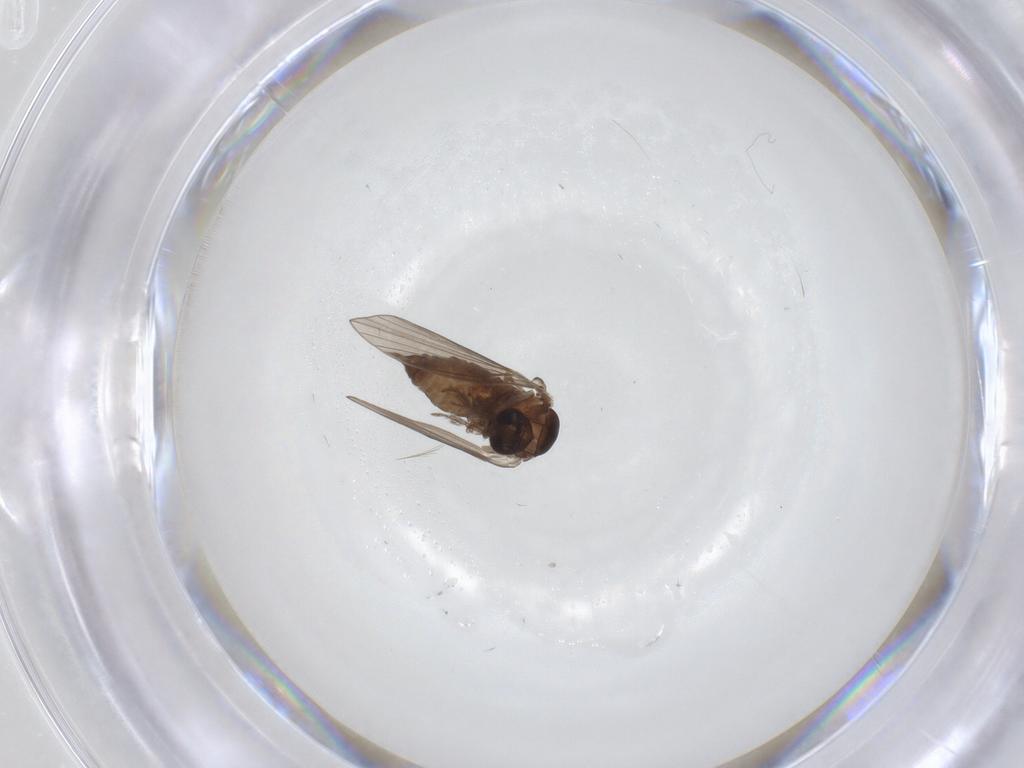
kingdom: Animalia
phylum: Arthropoda
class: Insecta
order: Diptera
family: Psychodidae
